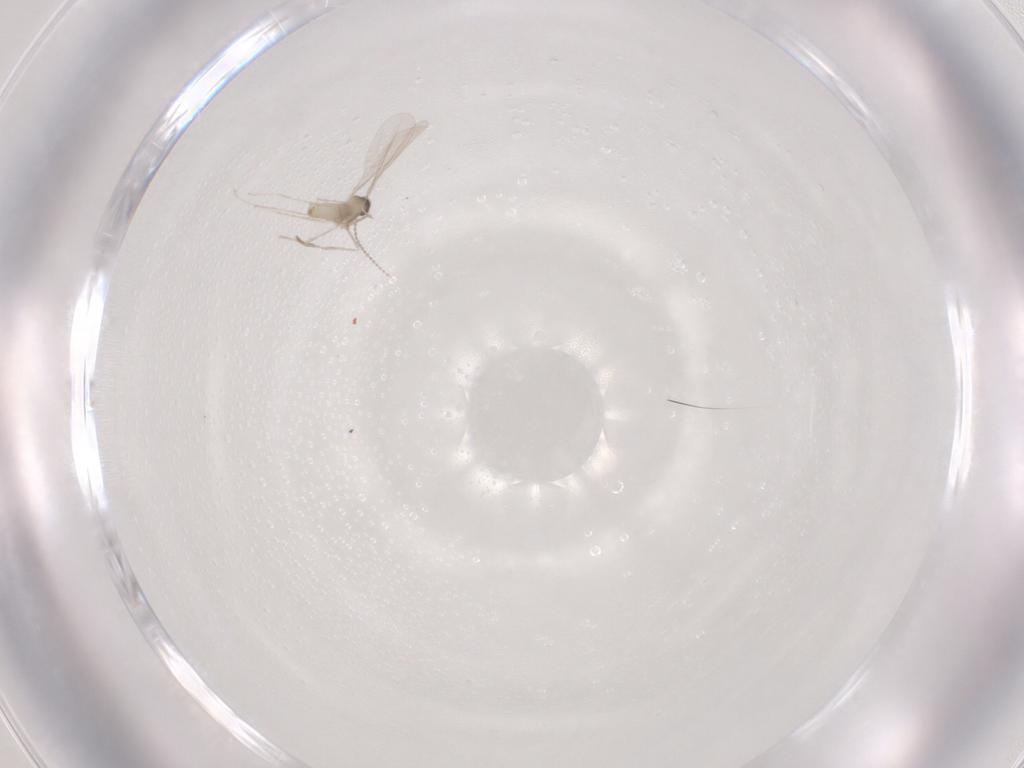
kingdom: Animalia
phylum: Arthropoda
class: Insecta
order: Diptera
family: Cecidomyiidae
